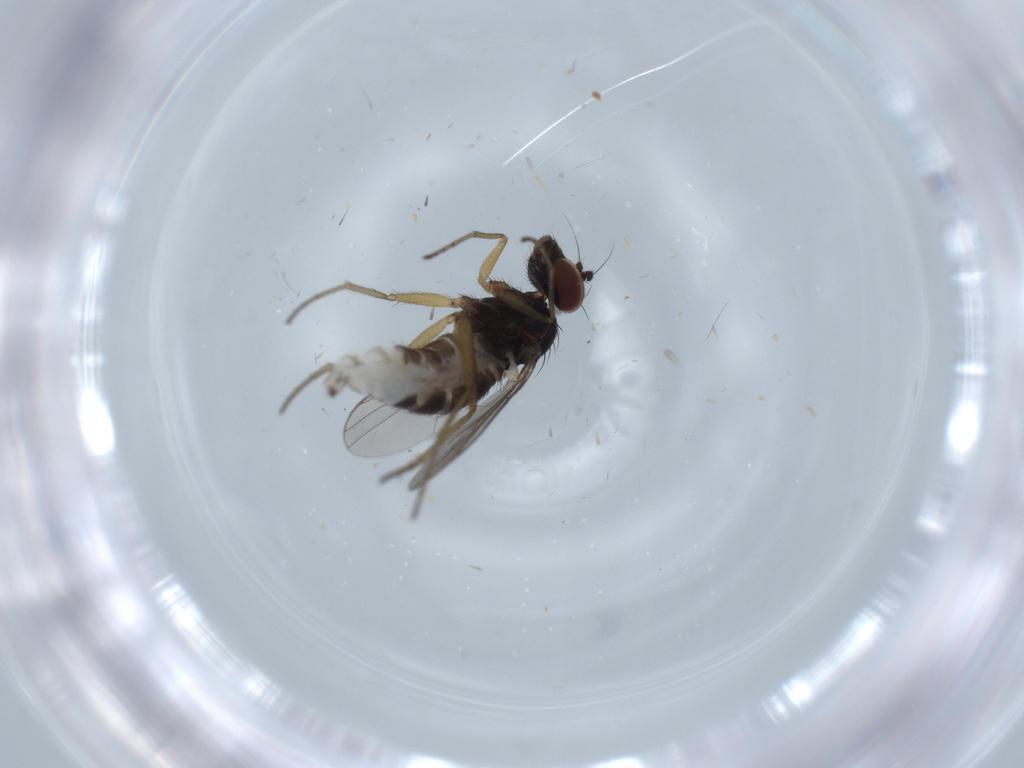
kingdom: Animalia
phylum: Arthropoda
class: Insecta
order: Diptera
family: Dolichopodidae
